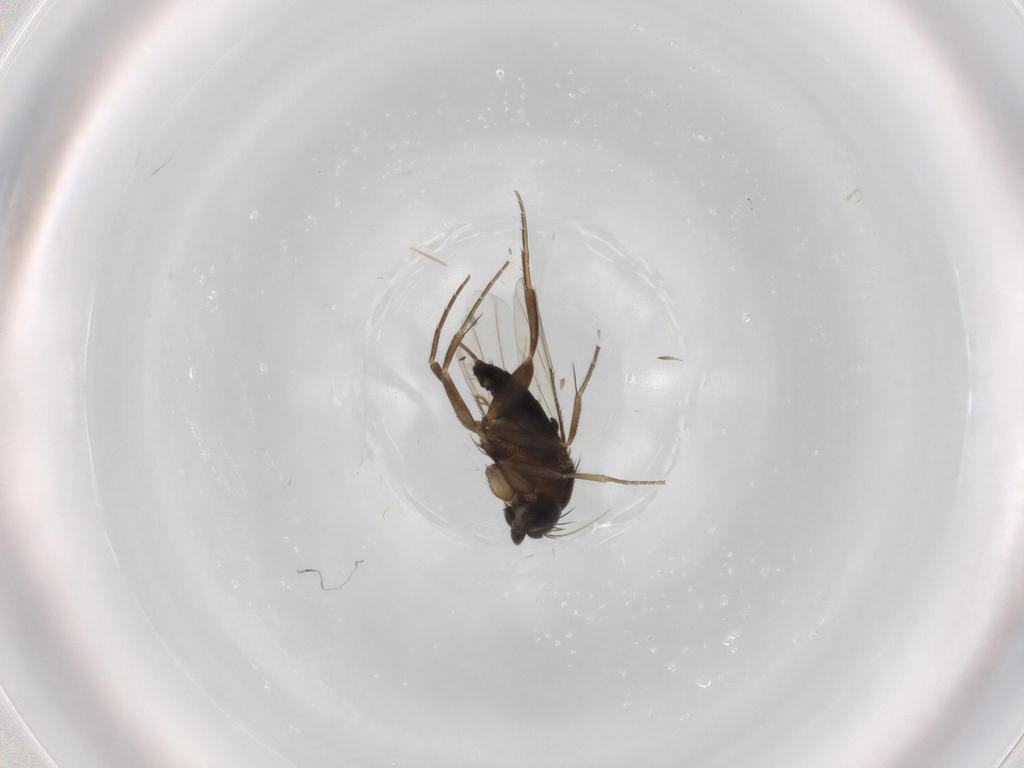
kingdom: Animalia
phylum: Arthropoda
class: Insecta
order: Diptera
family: Phoridae
